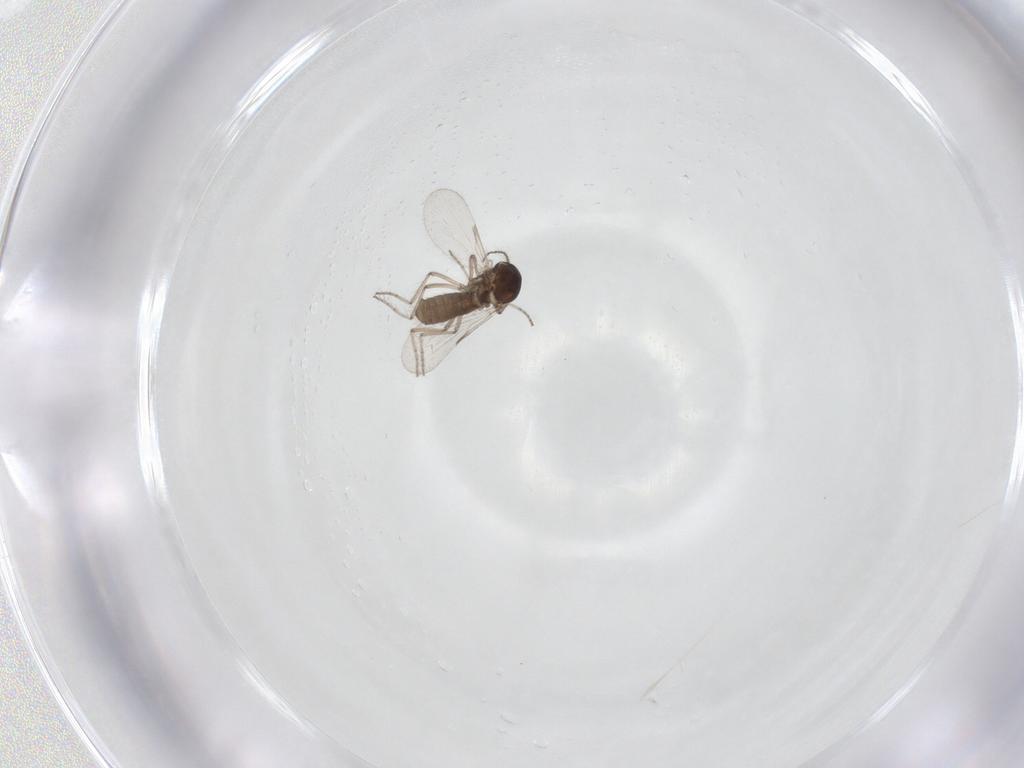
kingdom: Animalia
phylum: Arthropoda
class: Insecta
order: Diptera
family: Ceratopogonidae
